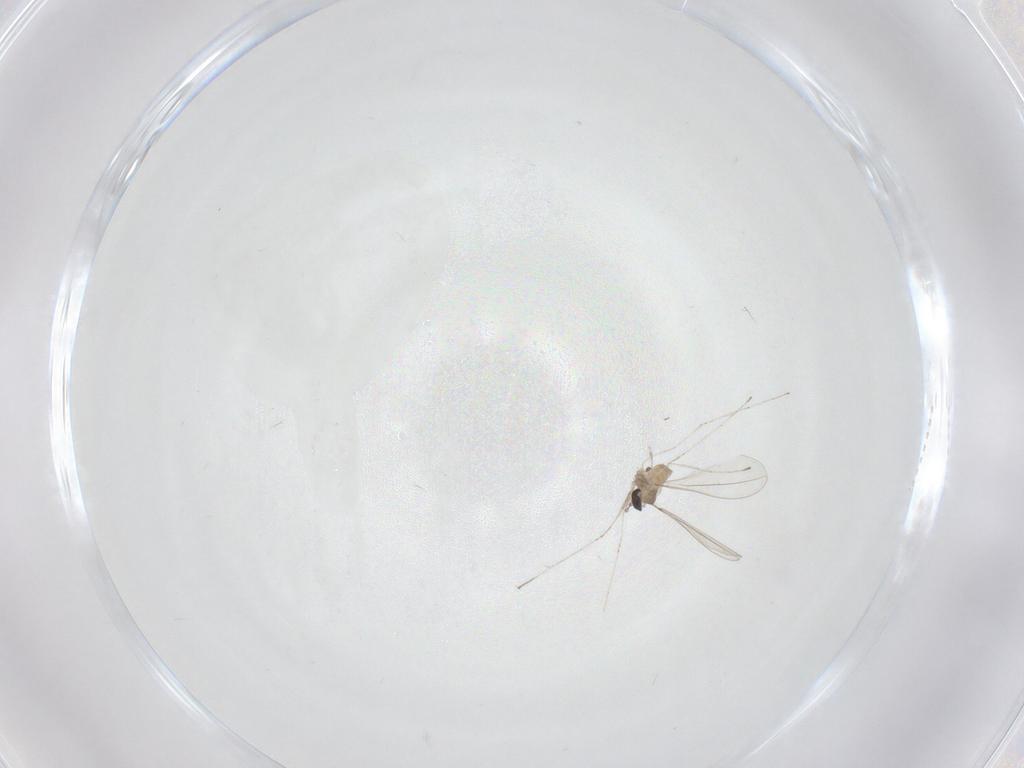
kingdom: Animalia
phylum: Arthropoda
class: Insecta
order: Diptera
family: Cecidomyiidae
